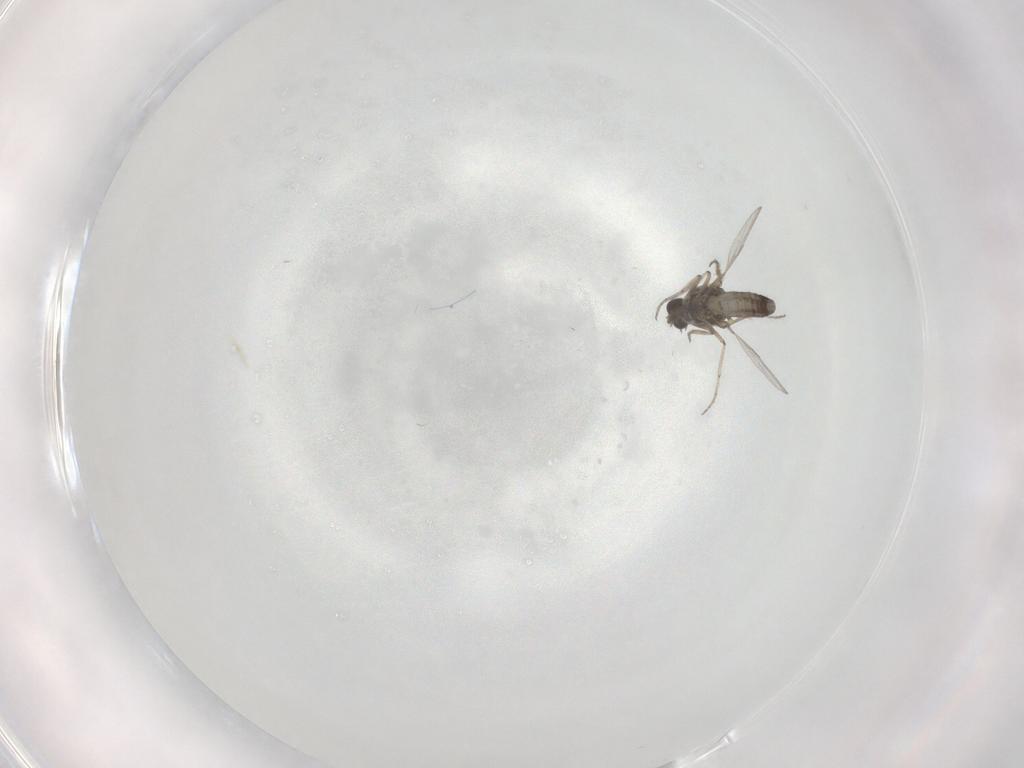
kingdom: Animalia
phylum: Arthropoda
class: Insecta
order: Diptera
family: Ceratopogonidae
